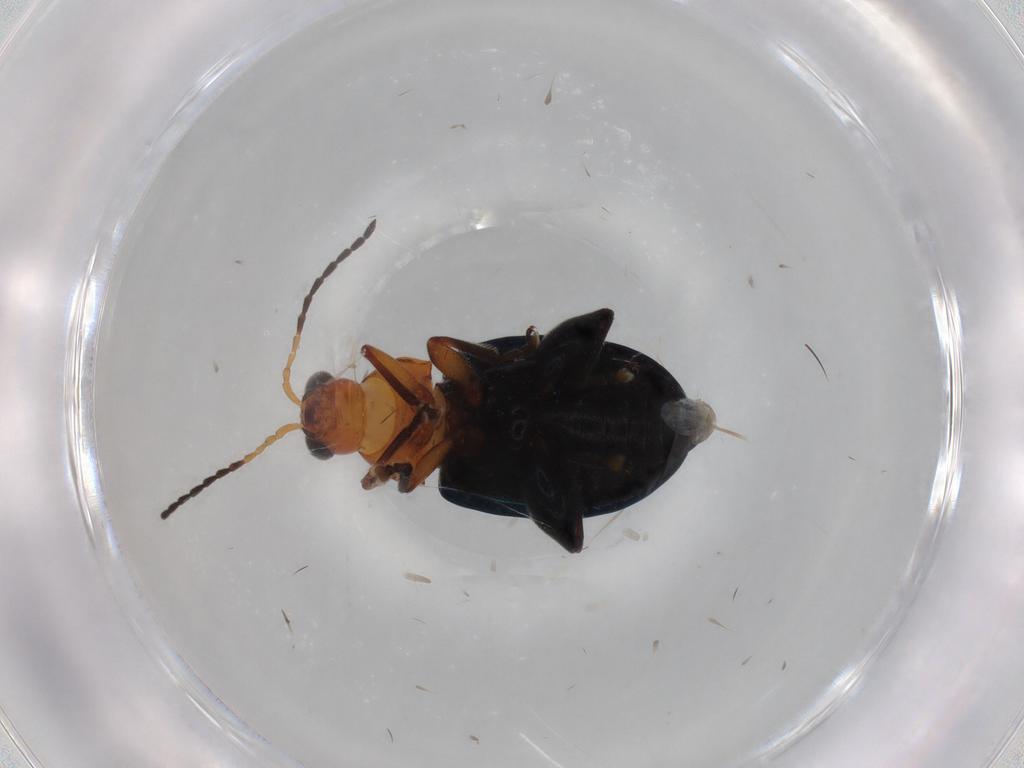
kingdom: Animalia
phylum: Arthropoda
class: Insecta
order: Coleoptera
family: Chrysomelidae
